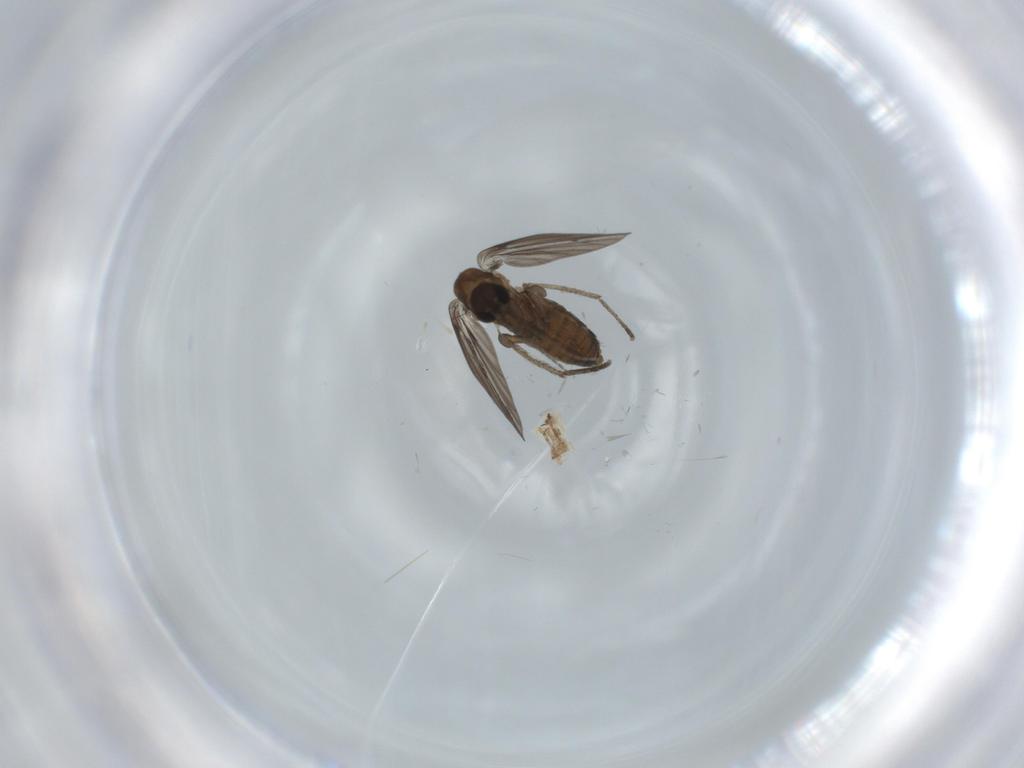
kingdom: Animalia
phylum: Arthropoda
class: Insecta
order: Diptera
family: Psychodidae
